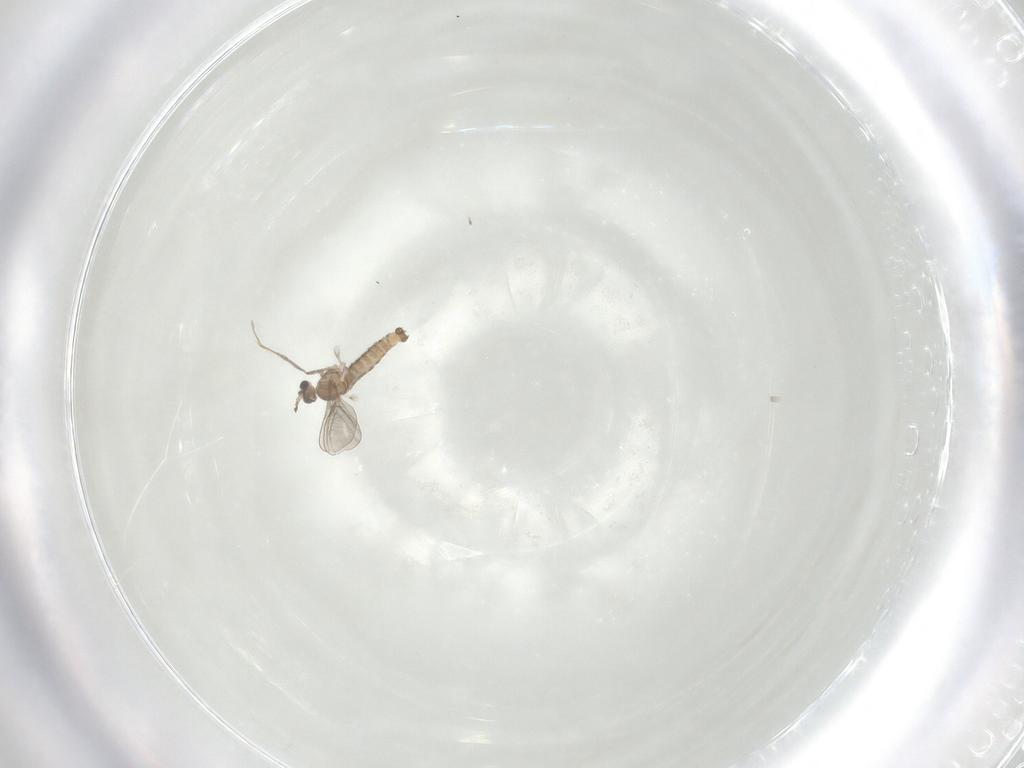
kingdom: Animalia
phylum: Arthropoda
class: Insecta
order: Diptera
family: Cecidomyiidae
